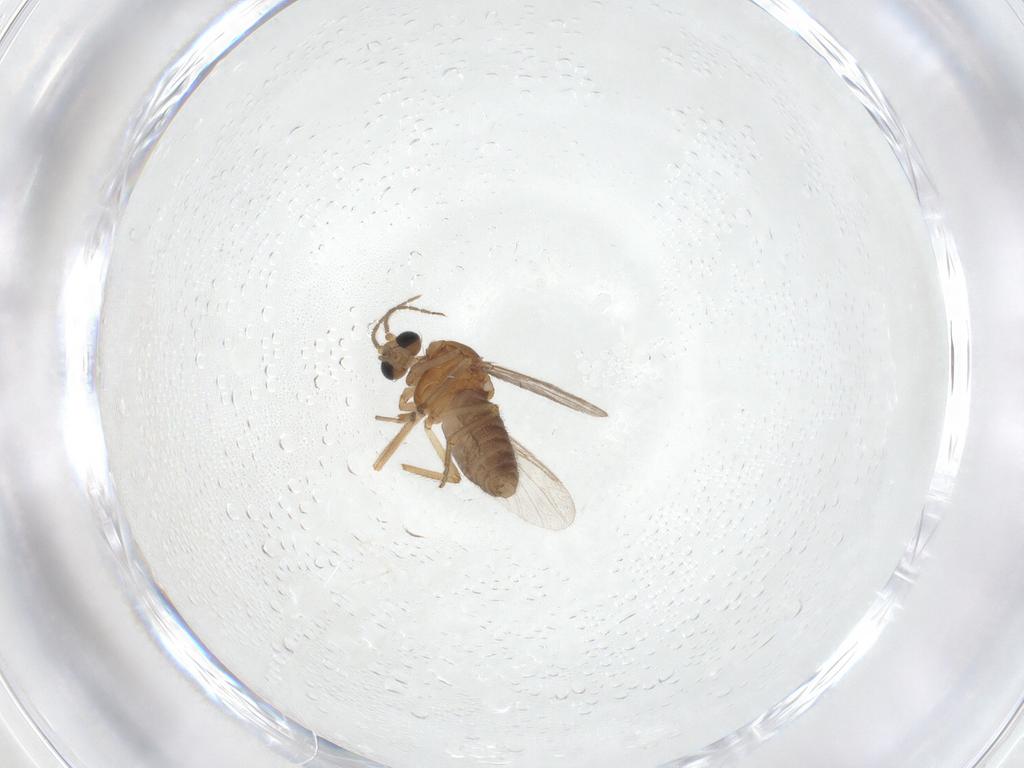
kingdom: Animalia
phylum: Arthropoda
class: Insecta
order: Diptera
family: Ceratopogonidae
